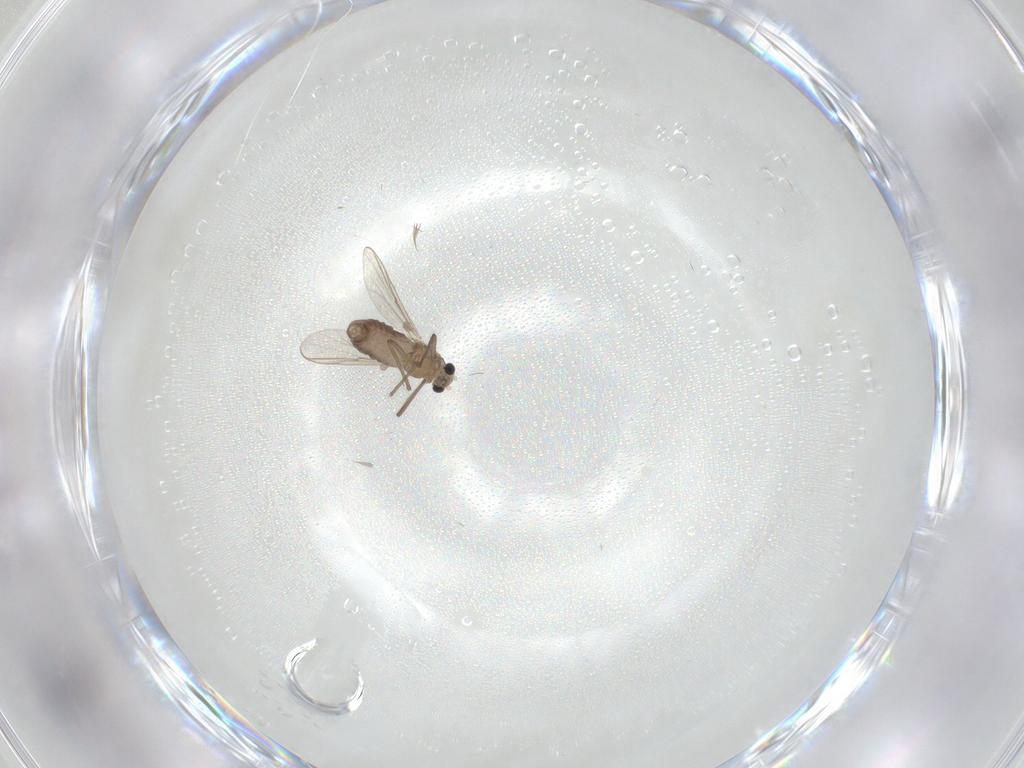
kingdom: Animalia
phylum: Arthropoda
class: Insecta
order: Diptera
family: Chironomidae
